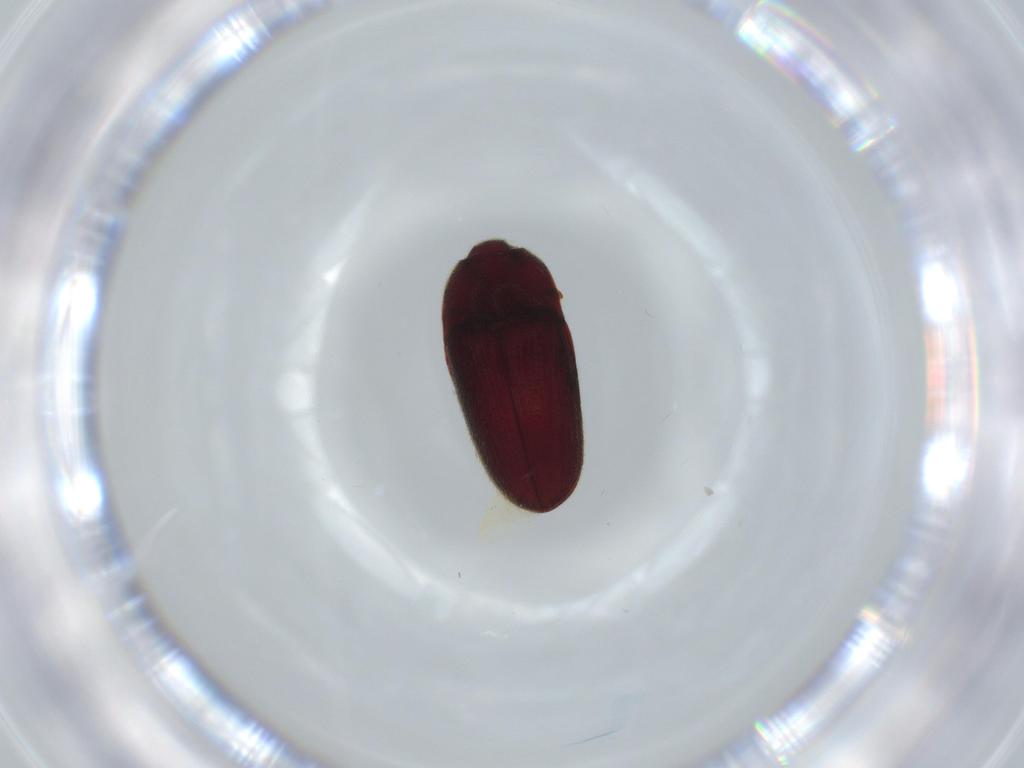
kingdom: Animalia
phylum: Arthropoda
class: Insecta
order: Coleoptera
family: Throscidae
